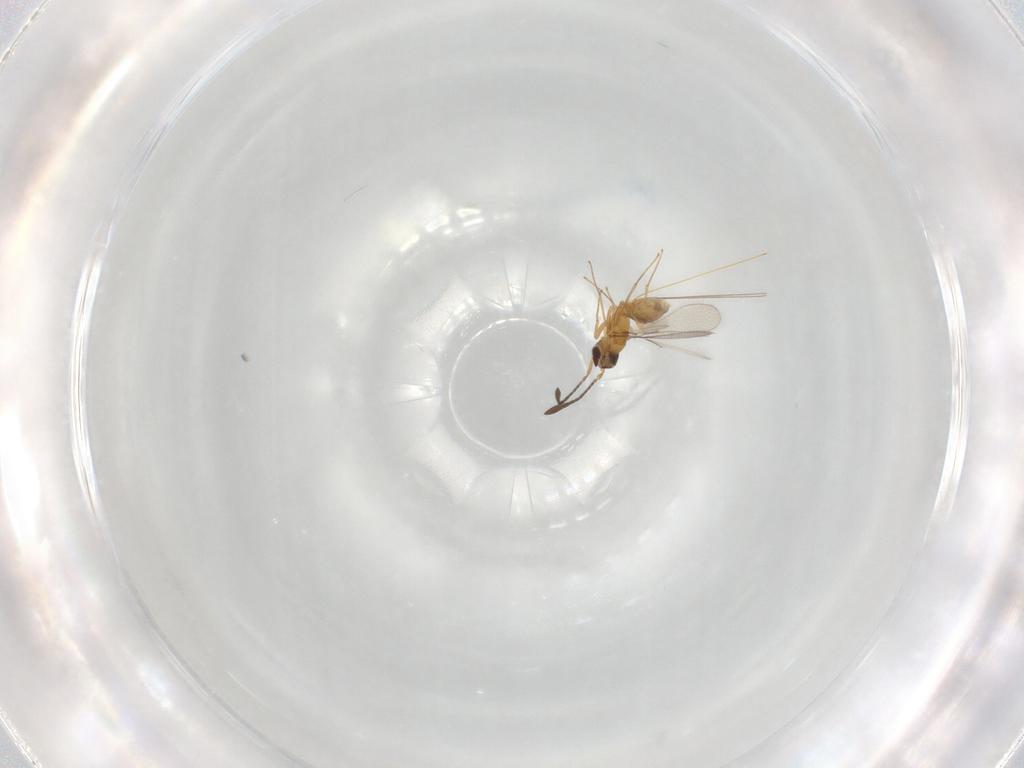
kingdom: Animalia
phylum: Arthropoda
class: Insecta
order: Hymenoptera
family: Mymaridae
